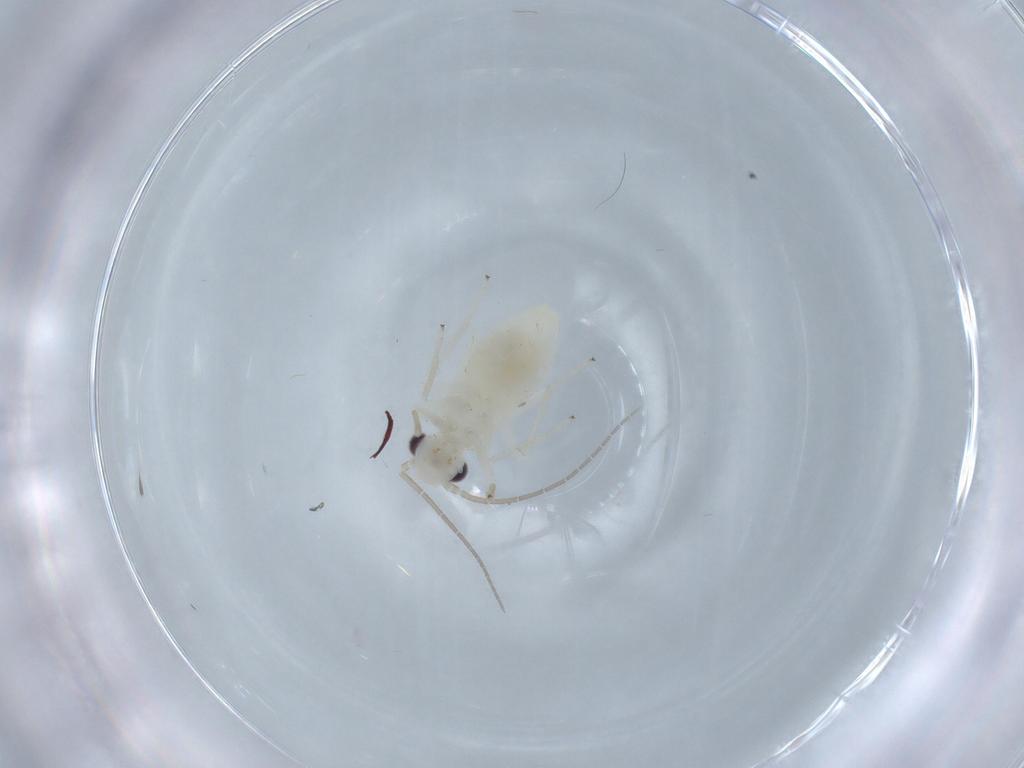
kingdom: Animalia
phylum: Arthropoda
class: Insecta
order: Psocodea
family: Caeciliusidae
